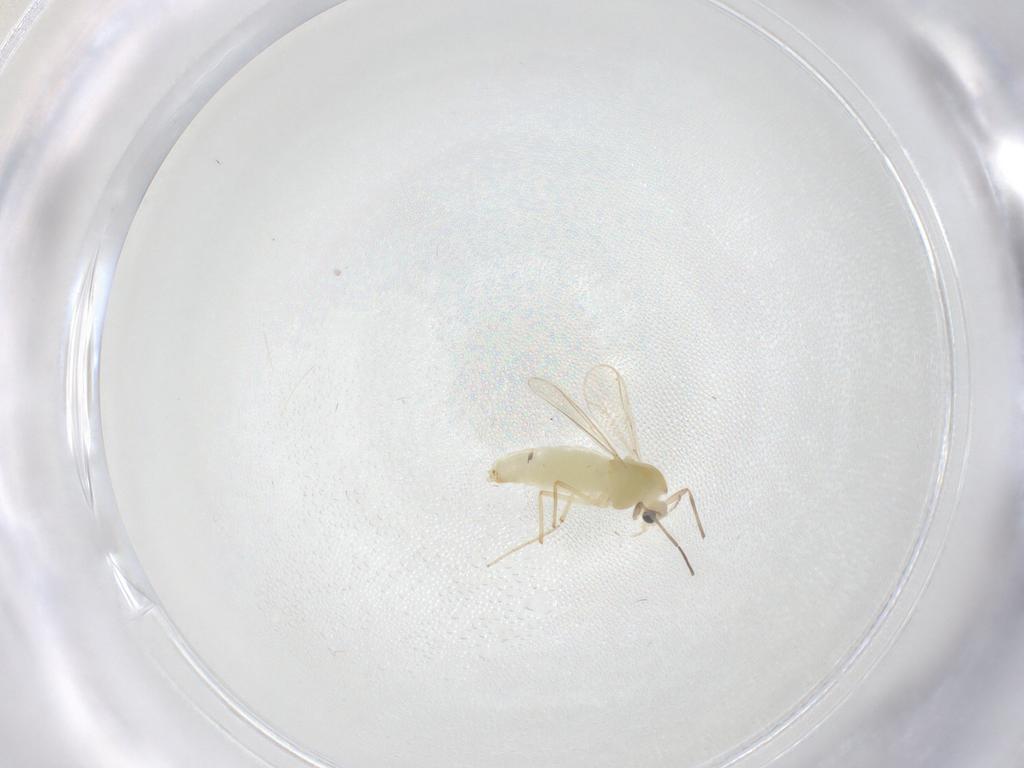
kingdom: Animalia
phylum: Arthropoda
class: Insecta
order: Diptera
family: Chironomidae
